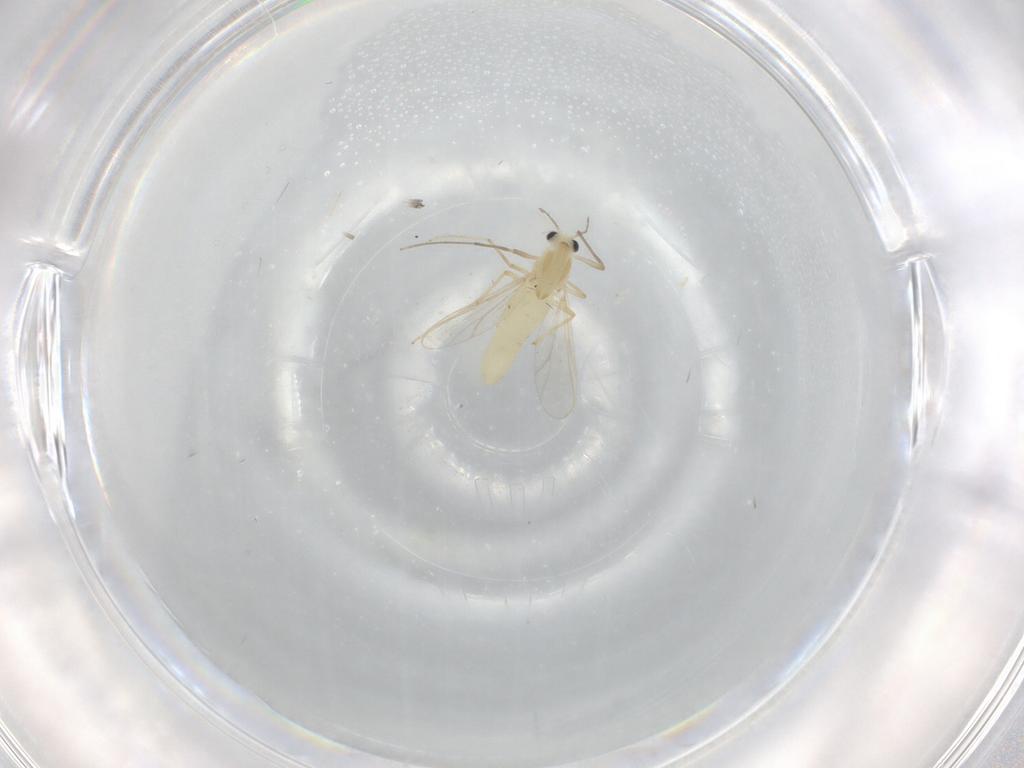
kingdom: Animalia
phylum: Arthropoda
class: Insecta
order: Diptera
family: Chironomidae
